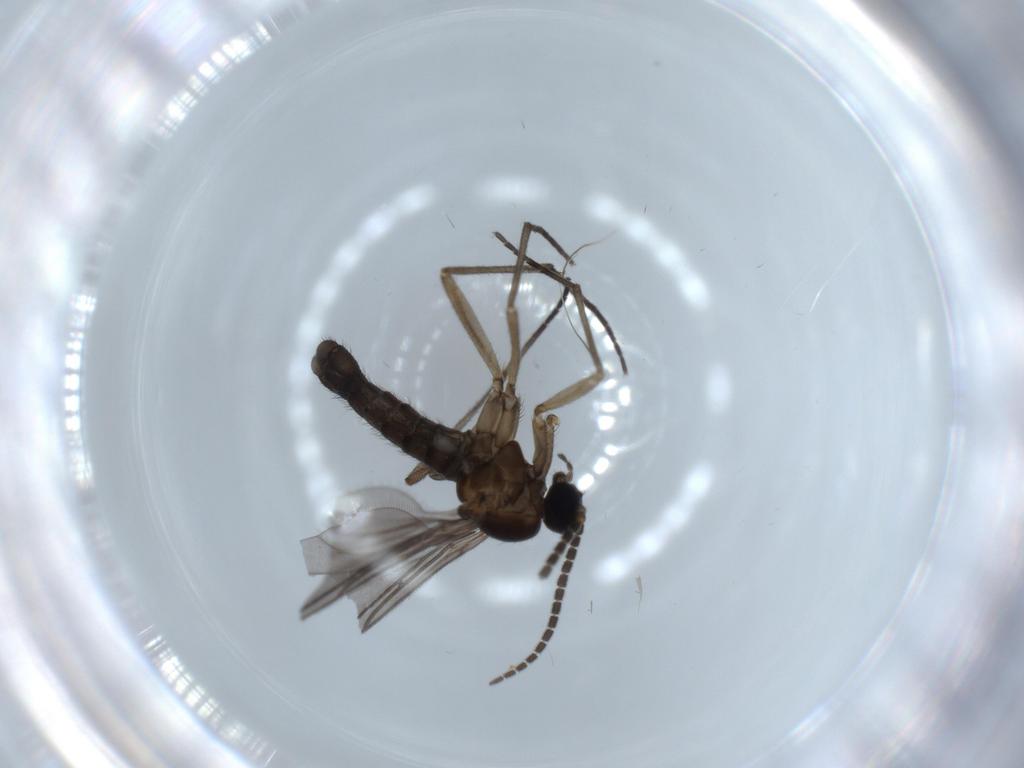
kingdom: Animalia
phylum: Arthropoda
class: Insecta
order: Diptera
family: Sciaridae
